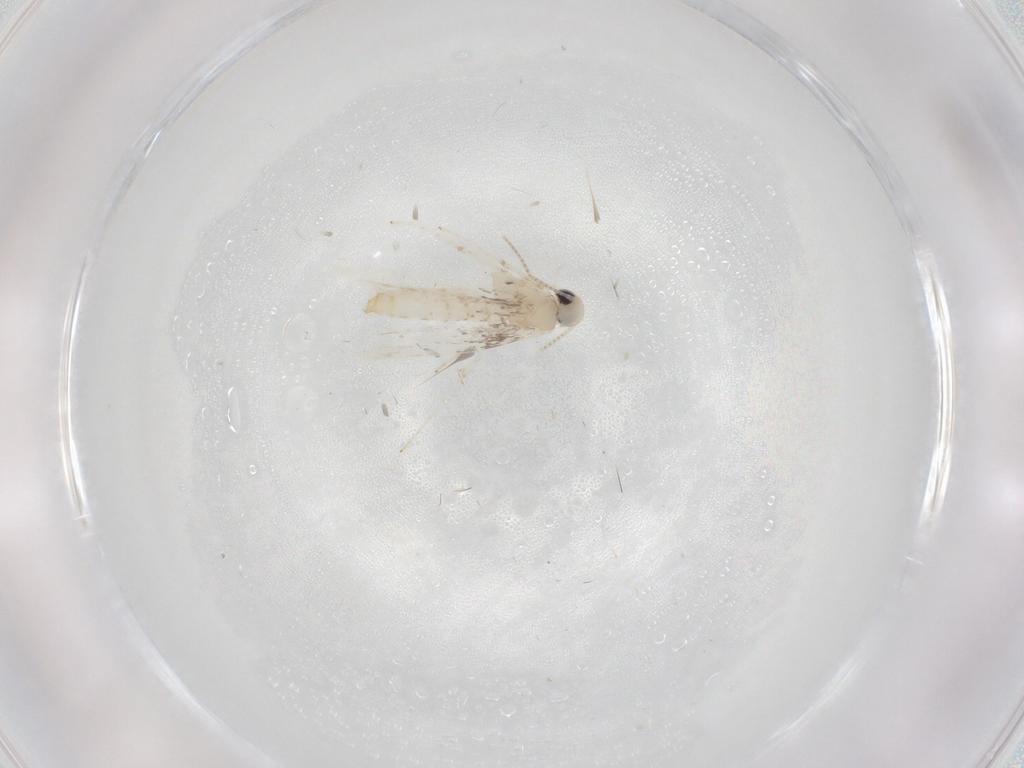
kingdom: Animalia
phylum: Arthropoda
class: Insecta
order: Lepidoptera
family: Gracillariidae
